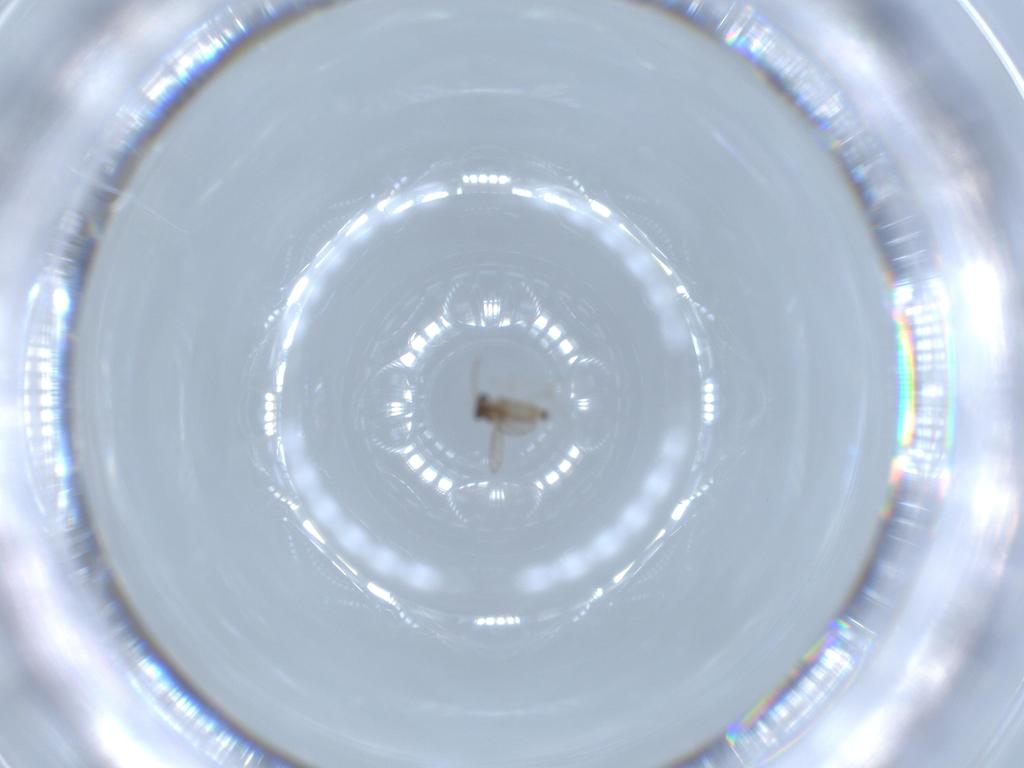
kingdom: Animalia
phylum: Arthropoda
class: Insecta
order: Diptera
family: Cecidomyiidae
